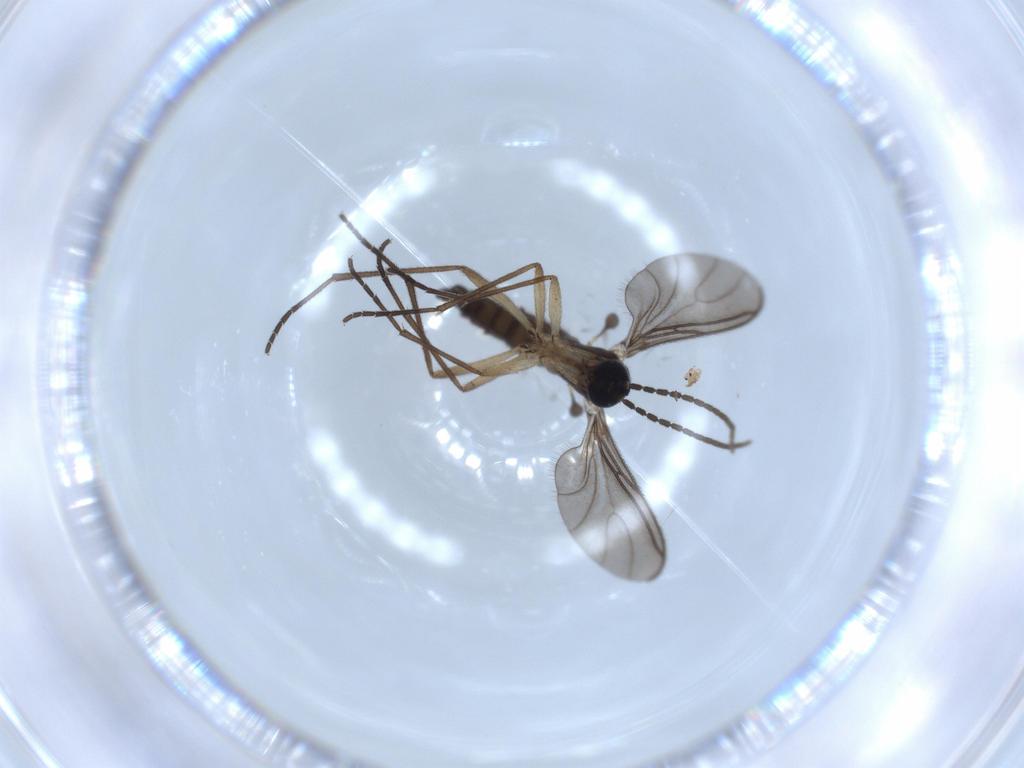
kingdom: Animalia
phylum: Arthropoda
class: Insecta
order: Diptera
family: Sciaridae
